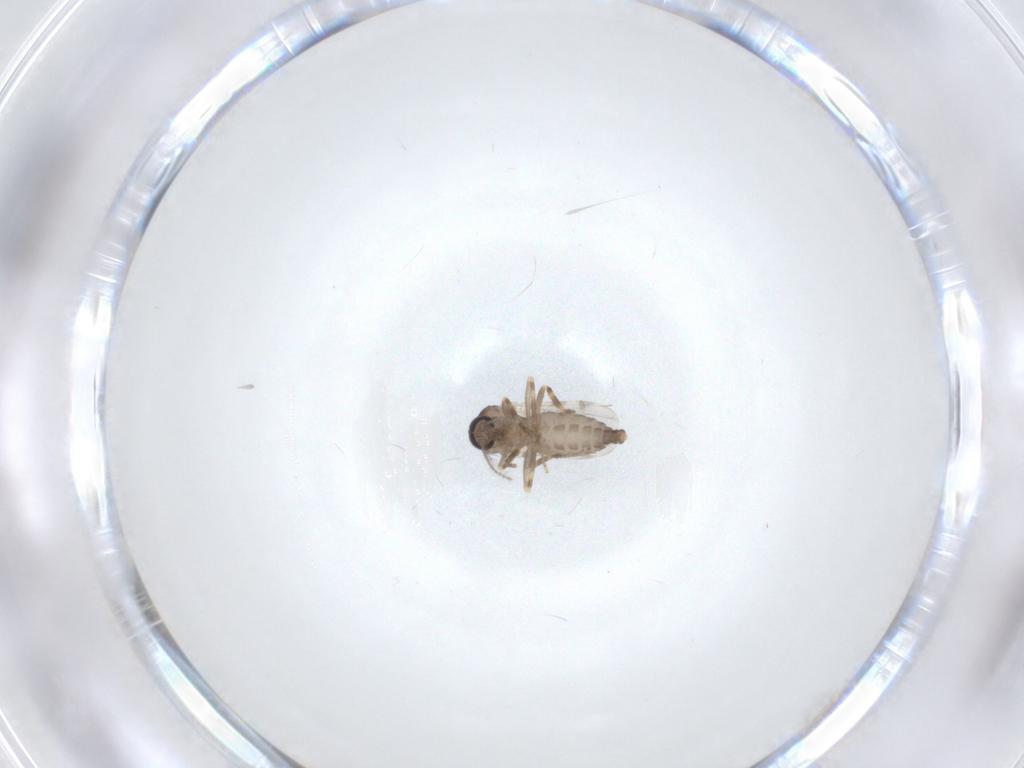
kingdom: Animalia
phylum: Arthropoda
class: Insecta
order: Diptera
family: Ceratopogonidae
